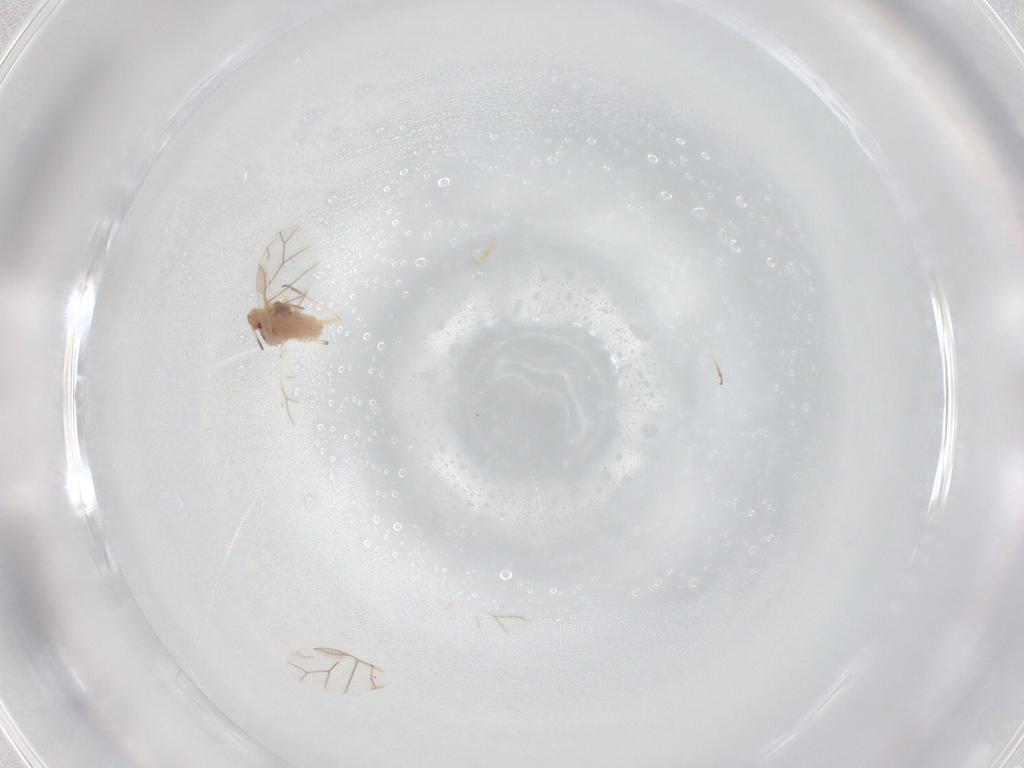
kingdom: Animalia
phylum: Arthropoda
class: Insecta
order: Hemiptera
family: Aphididae
